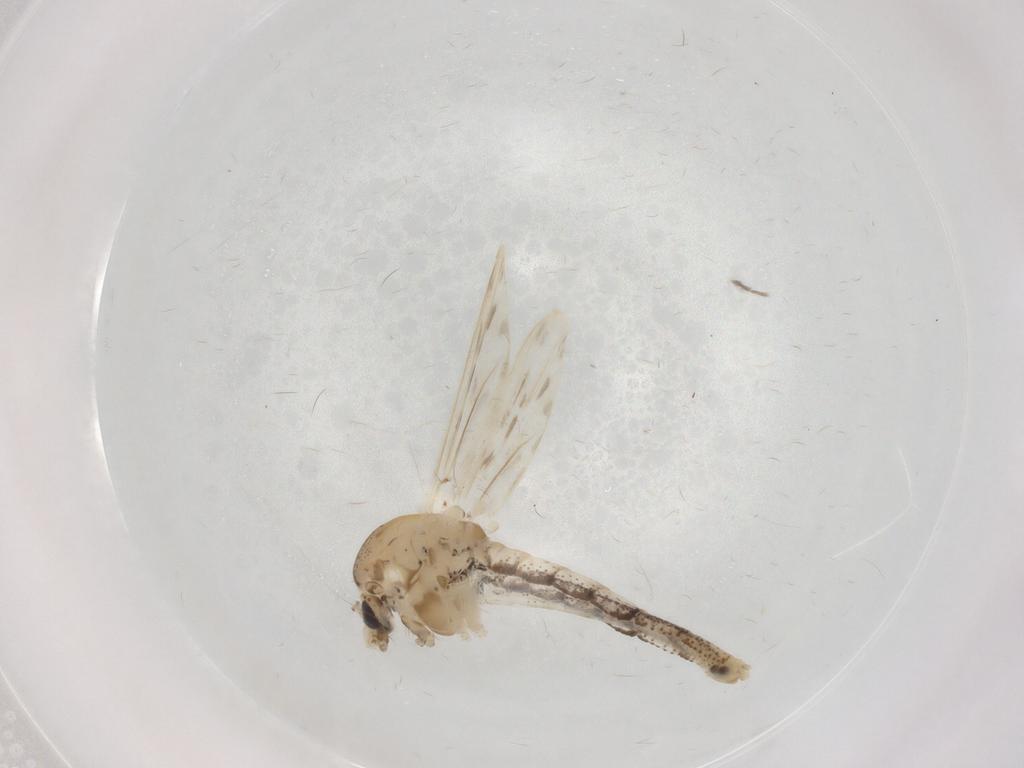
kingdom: Animalia
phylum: Arthropoda
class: Insecta
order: Diptera
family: Chaoboridae
